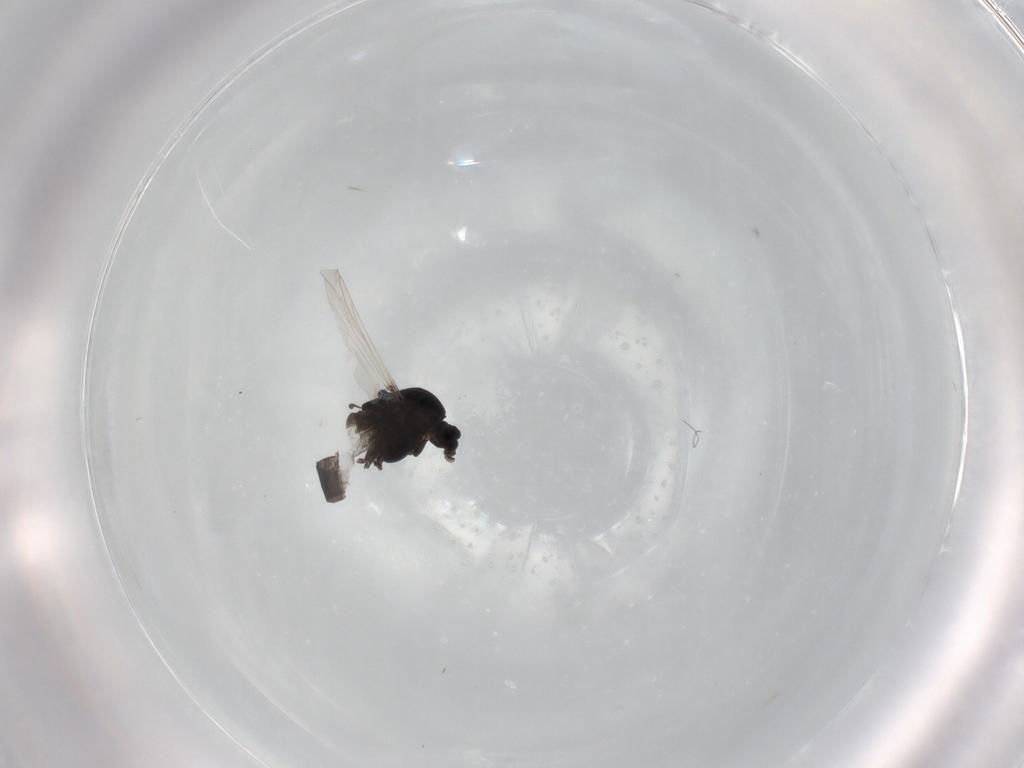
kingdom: Animalia
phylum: Arthropoda
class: Insecta
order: Diptera
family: Chironomidae
